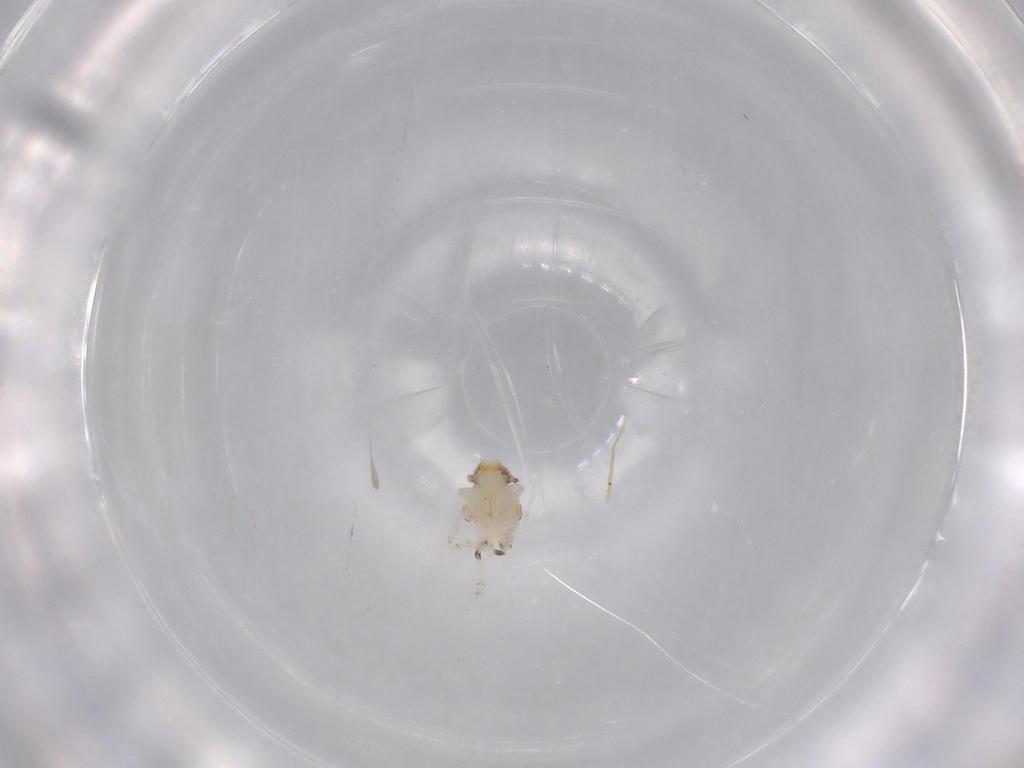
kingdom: Animalia
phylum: Arthropoda
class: Insecta
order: Hemiptera
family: Nogodinidae
